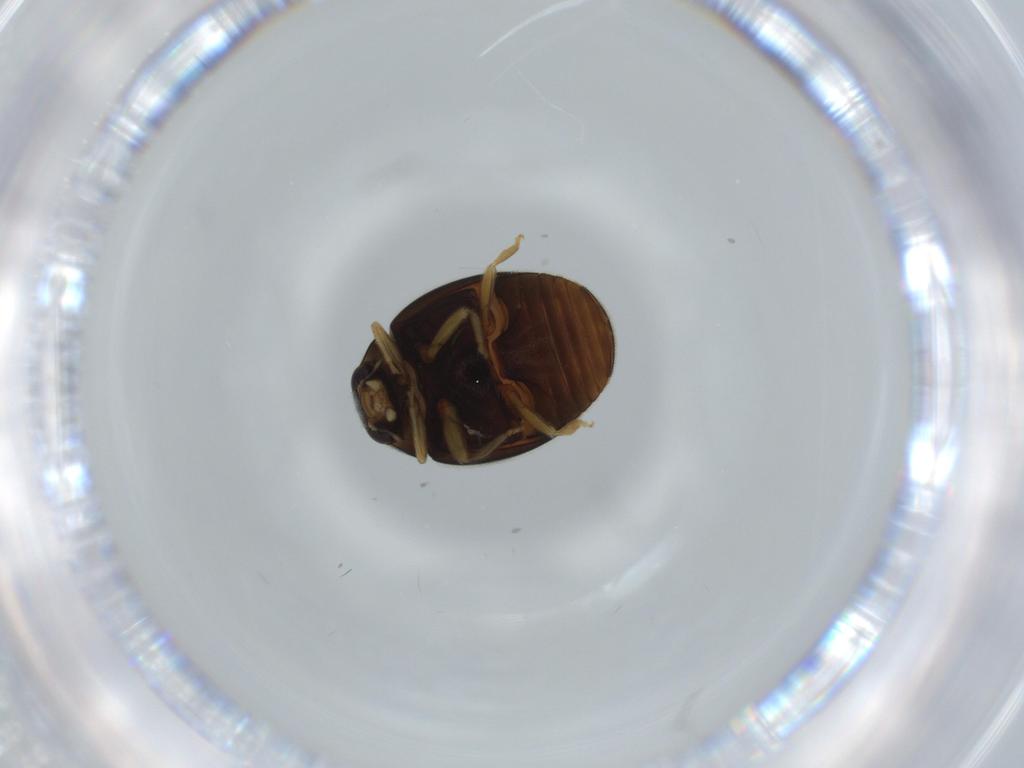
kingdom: Animalia
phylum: Arthropoda
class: Insecta
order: Coleoptera
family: Coccinellidae
